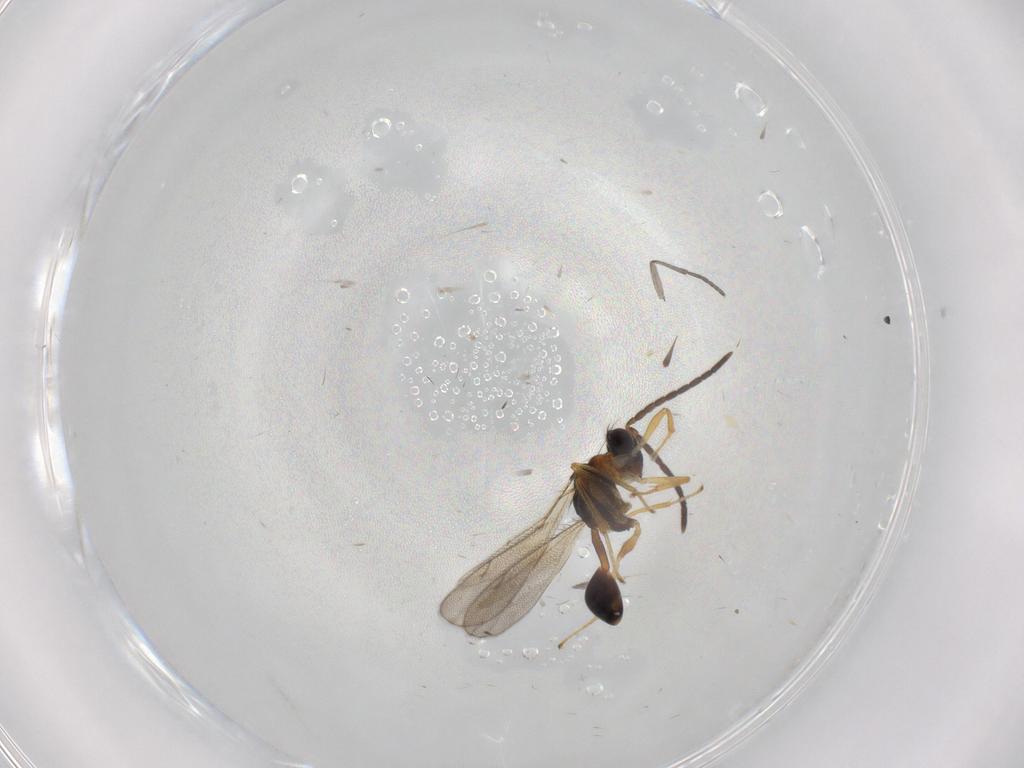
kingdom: Animalia
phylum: Arthropoda
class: Insecta
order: Hymenoptera
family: Diparidae
